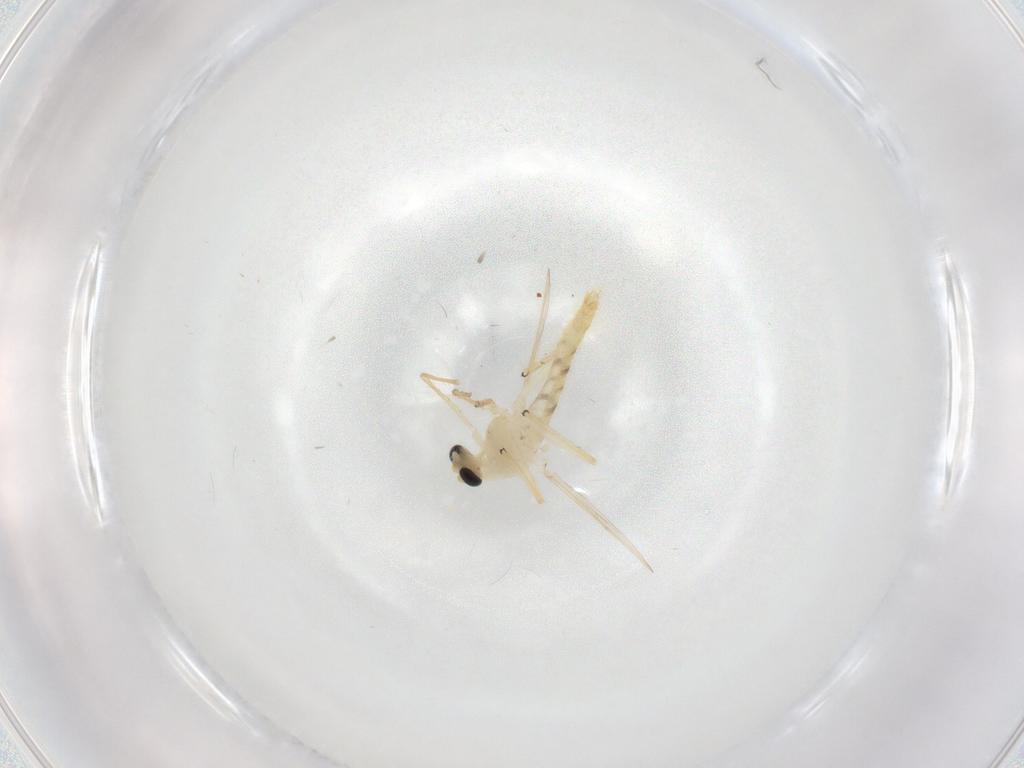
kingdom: Animalia
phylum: Arthropoda
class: Insecta
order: Diptera
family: Chironomidae
